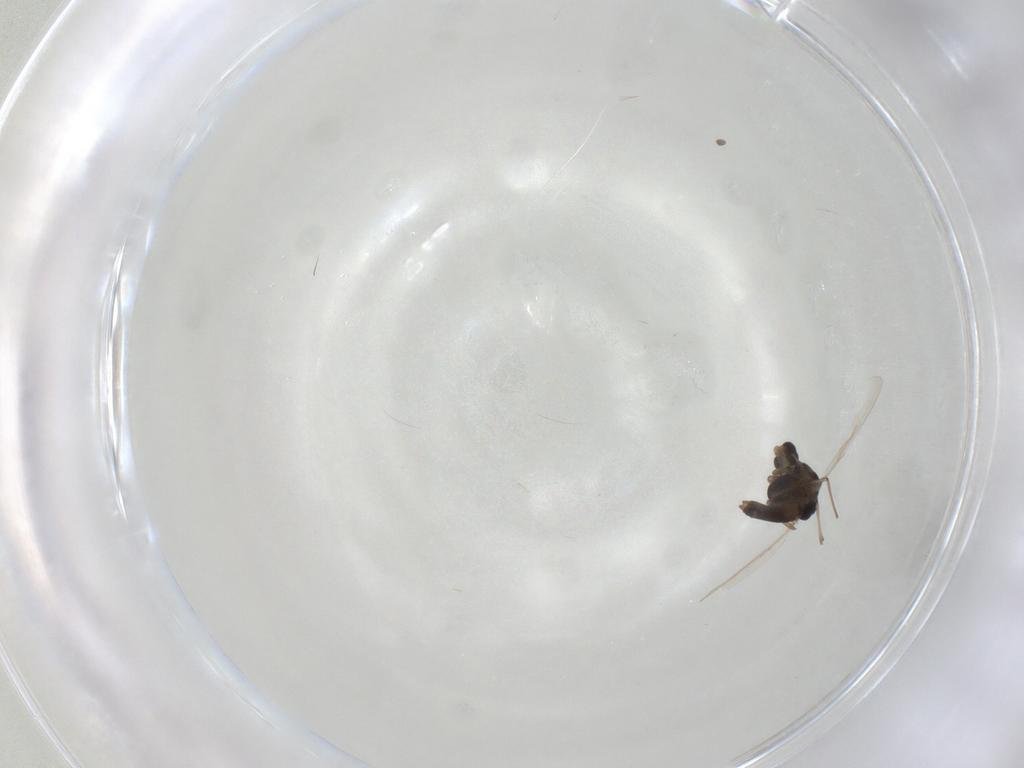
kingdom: Animalia
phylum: Arthropoda
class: Insecta
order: Diptera
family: Chironomidae
